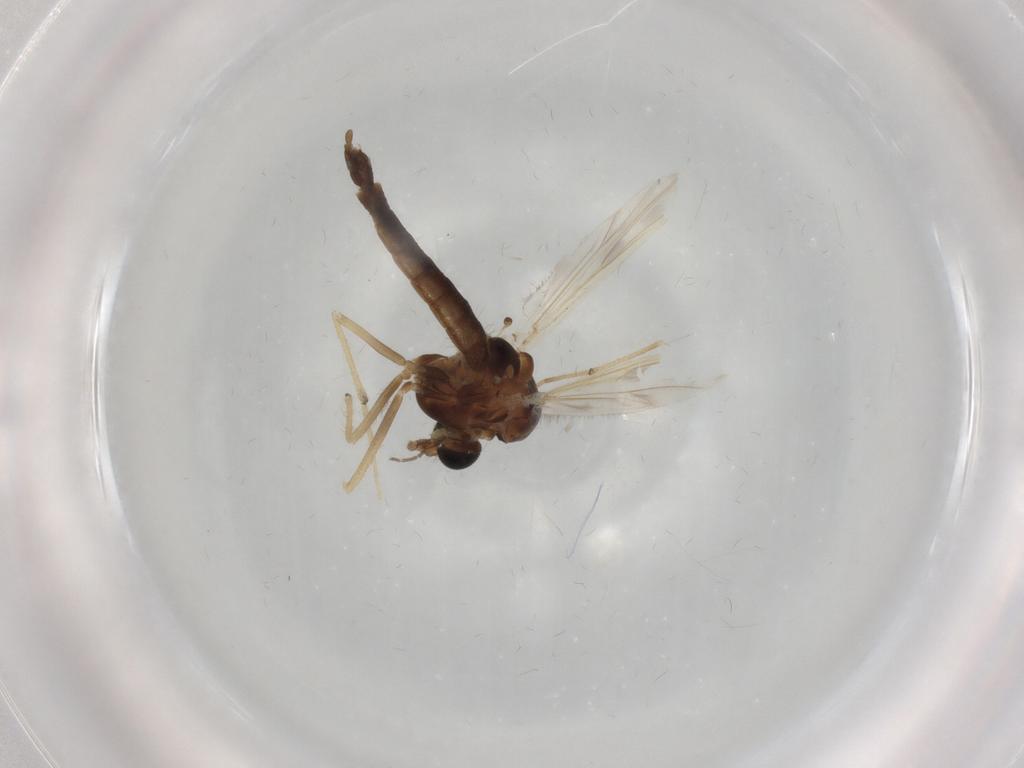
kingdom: Animalia
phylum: Arthropoda
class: Insecta
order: Diptera
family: Chironomidae
